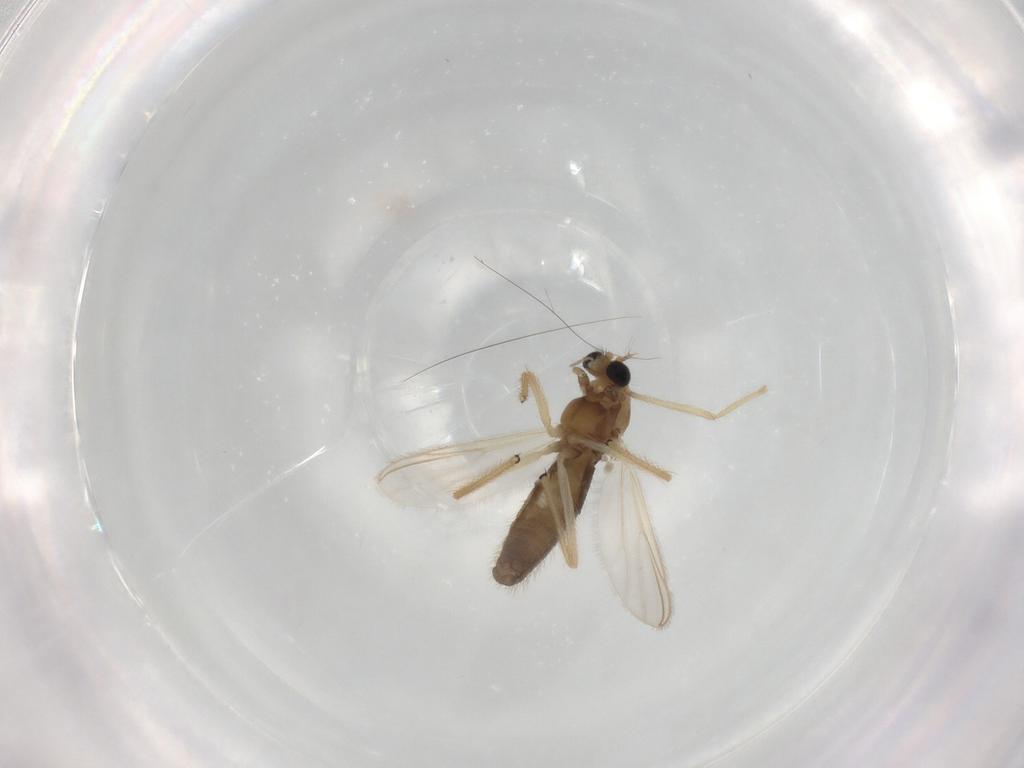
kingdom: Animalia
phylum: Arthropoda
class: Insecta
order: Diptera
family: Chironomidae
